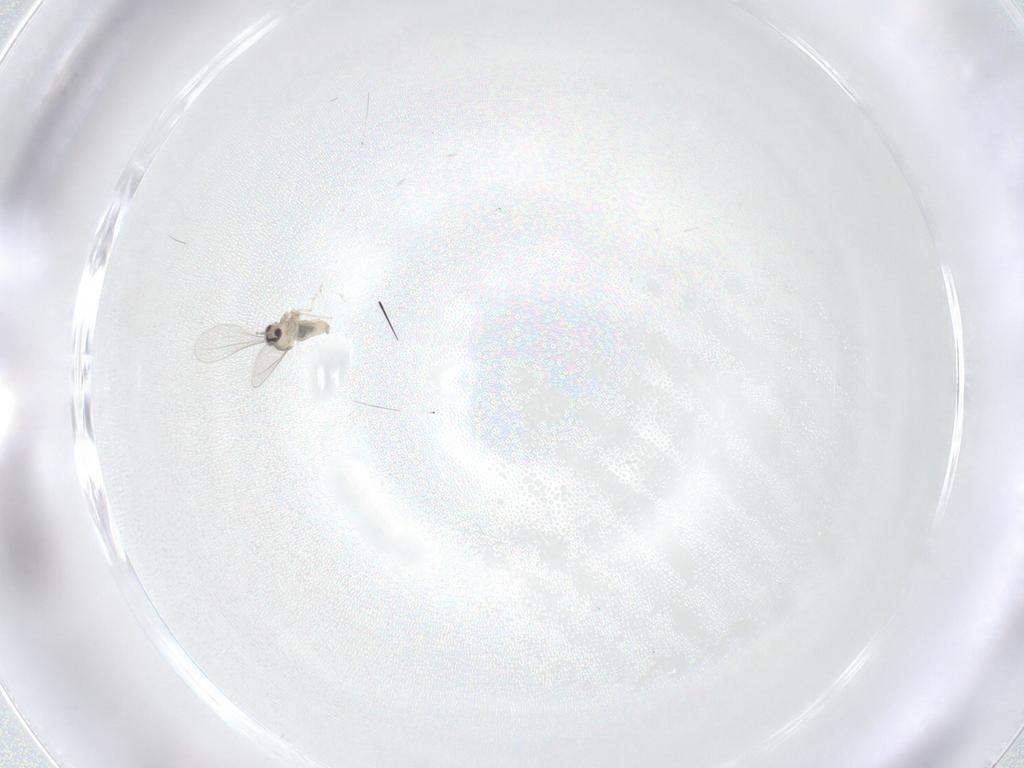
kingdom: Animalia
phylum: Arthropoda
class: Insecta
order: Diptera
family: Cecidomyiidae
